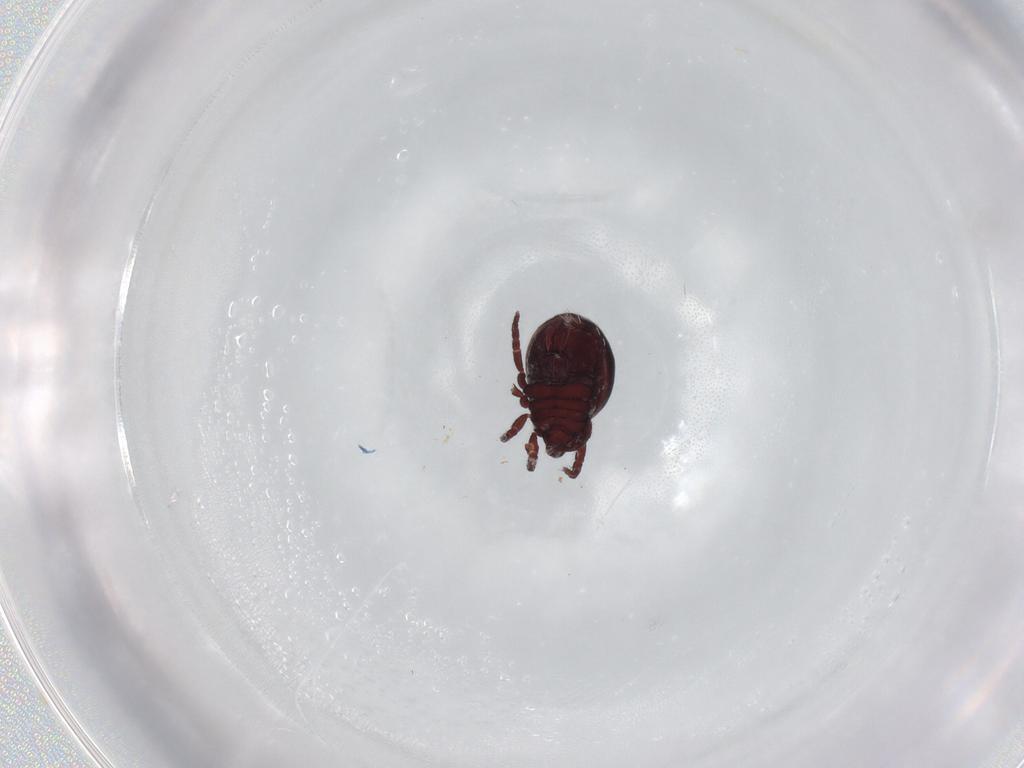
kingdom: Animalia
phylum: Arthropoda
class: Arachnida
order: Sarcoptiformes
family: Hermanniidae
